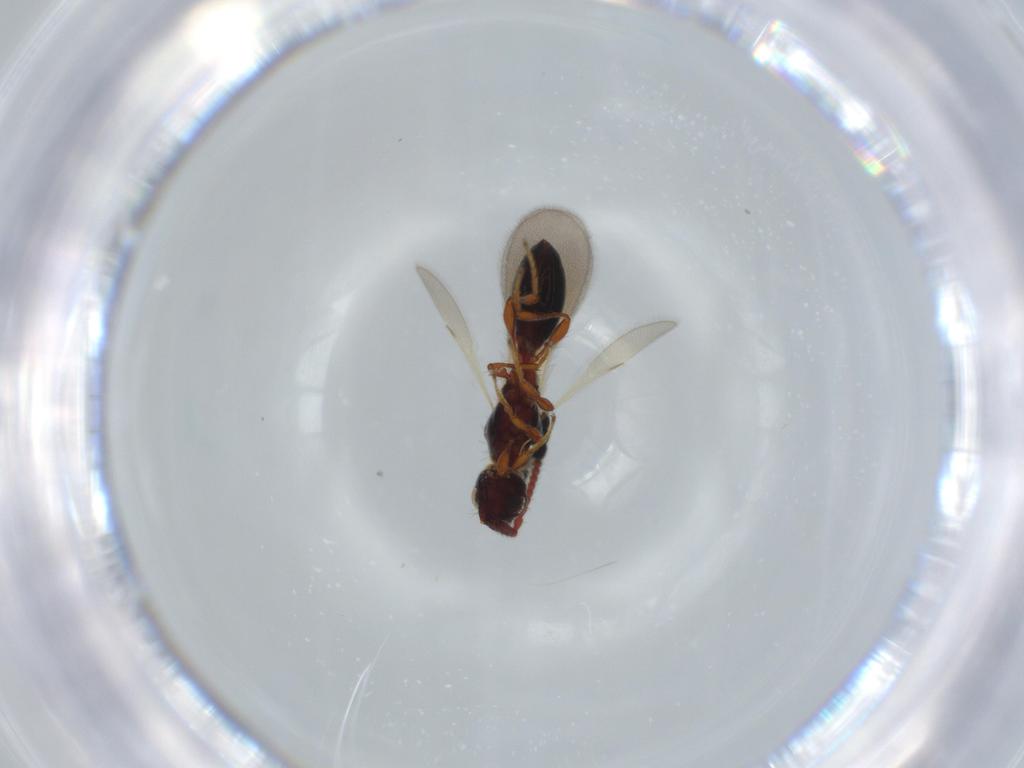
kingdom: Animalia
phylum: Arthropoda
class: Insecta
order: Hymenoptera
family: Diapriidae
